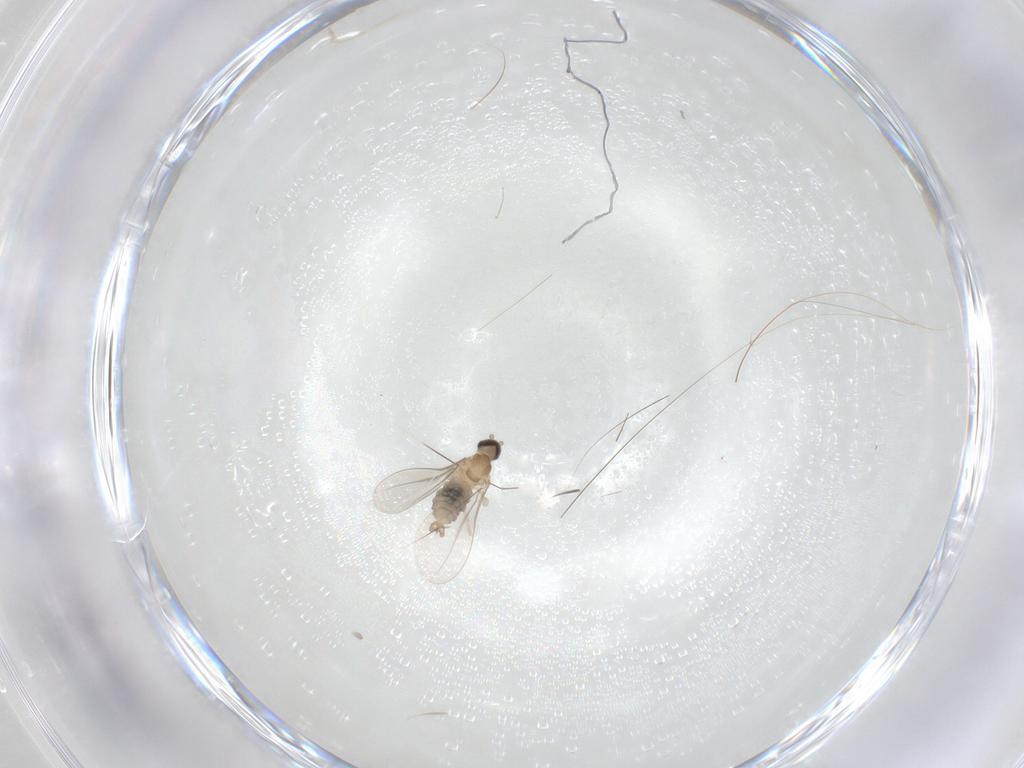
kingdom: Animalia
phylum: Arthropoda
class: Insecta
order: Diptera
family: Cecidomyiidae
